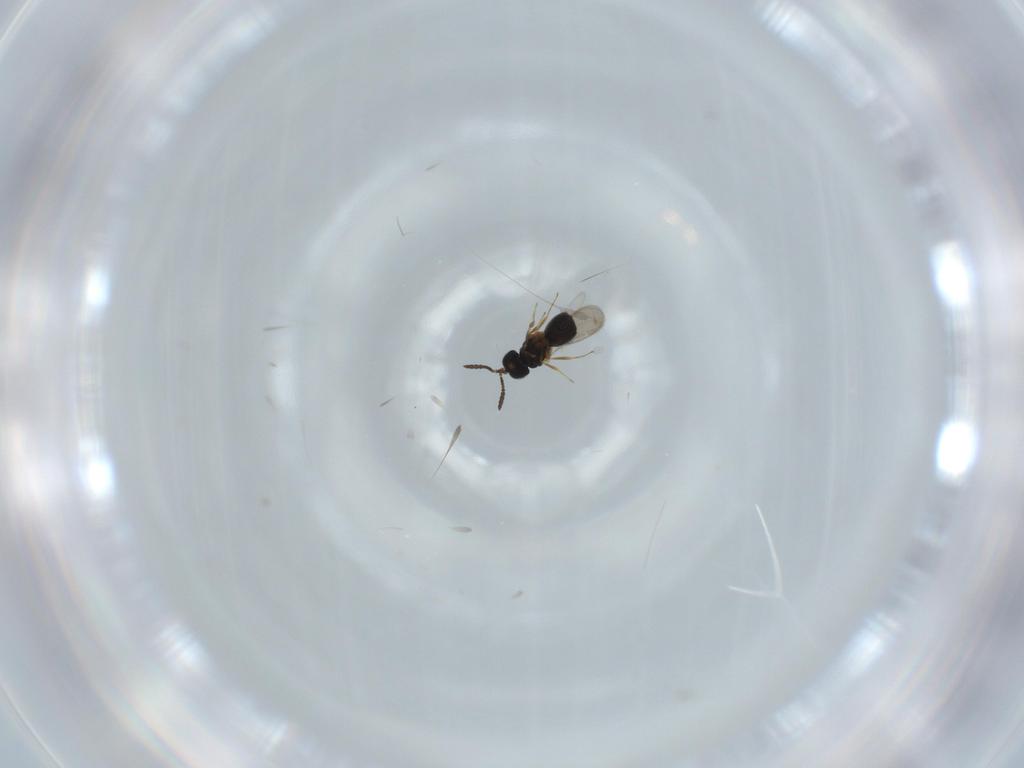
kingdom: Animalia
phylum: Arthropoda
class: Insecta
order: Hymenoptera
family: Scelionidae
